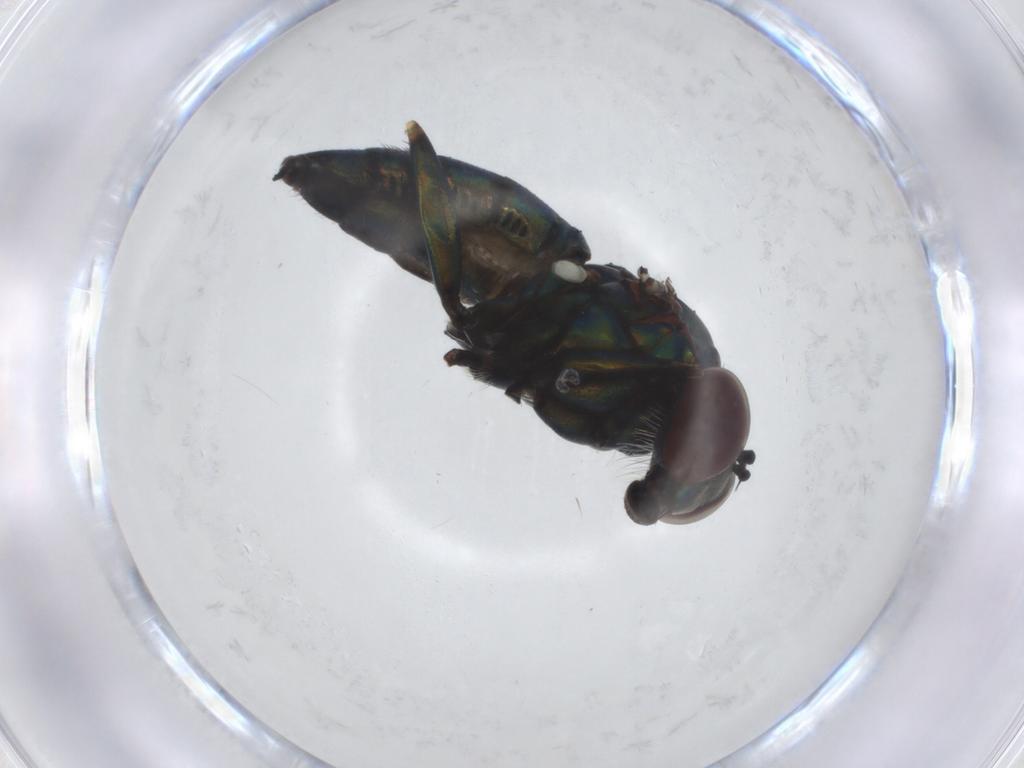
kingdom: Animalia
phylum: Arthropoda
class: Insecta
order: Diptera
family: Dolichopodidae
